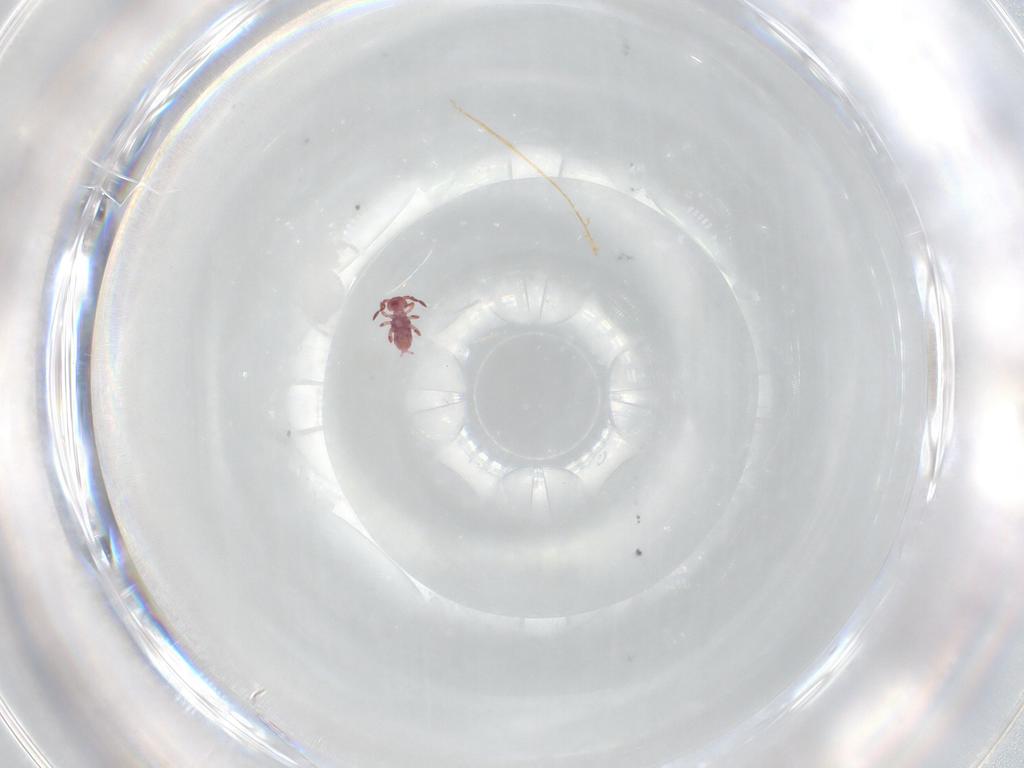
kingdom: Animalia
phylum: Arthropoda
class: Collembola
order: Symphypleona
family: Sminthurididae
